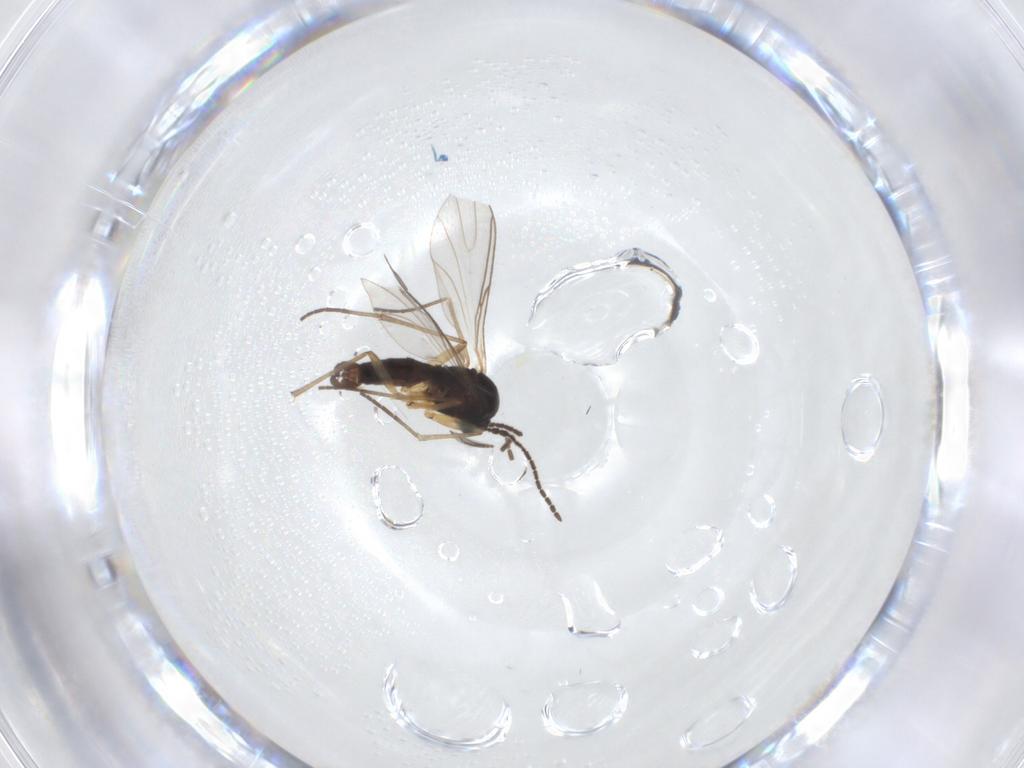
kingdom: Animalia
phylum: Arthropoda
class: Insecta
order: Diptera
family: Sciaridae
